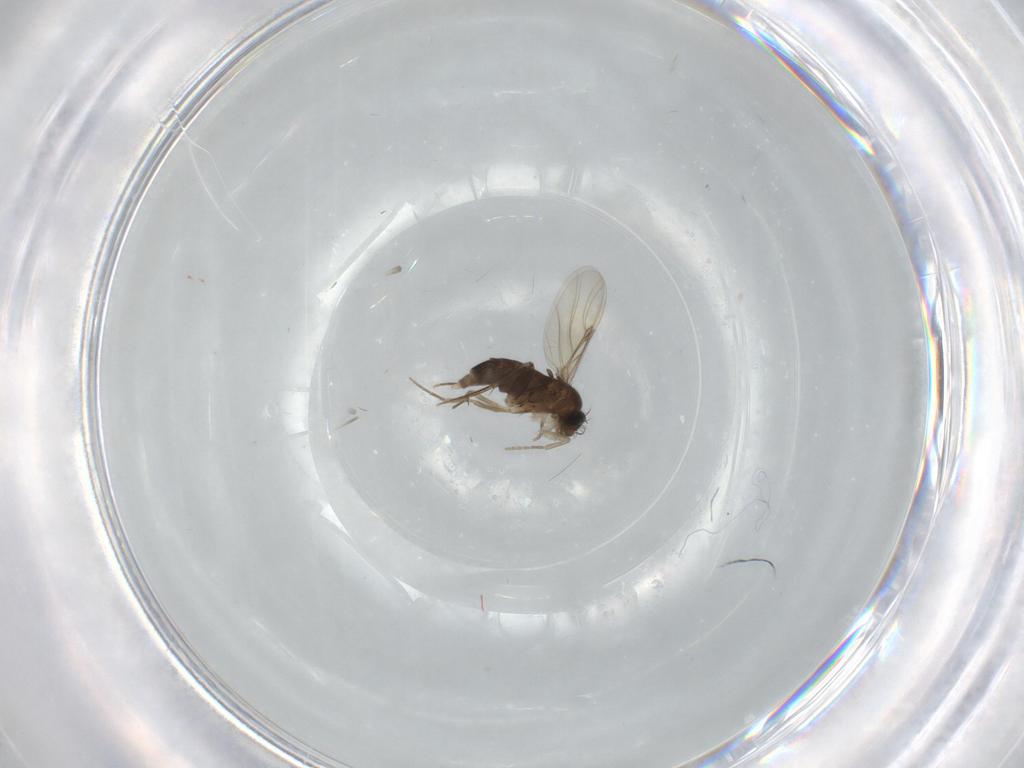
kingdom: Animalia
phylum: Arthropoda
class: Insecta
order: Diptera
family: Phoridae
